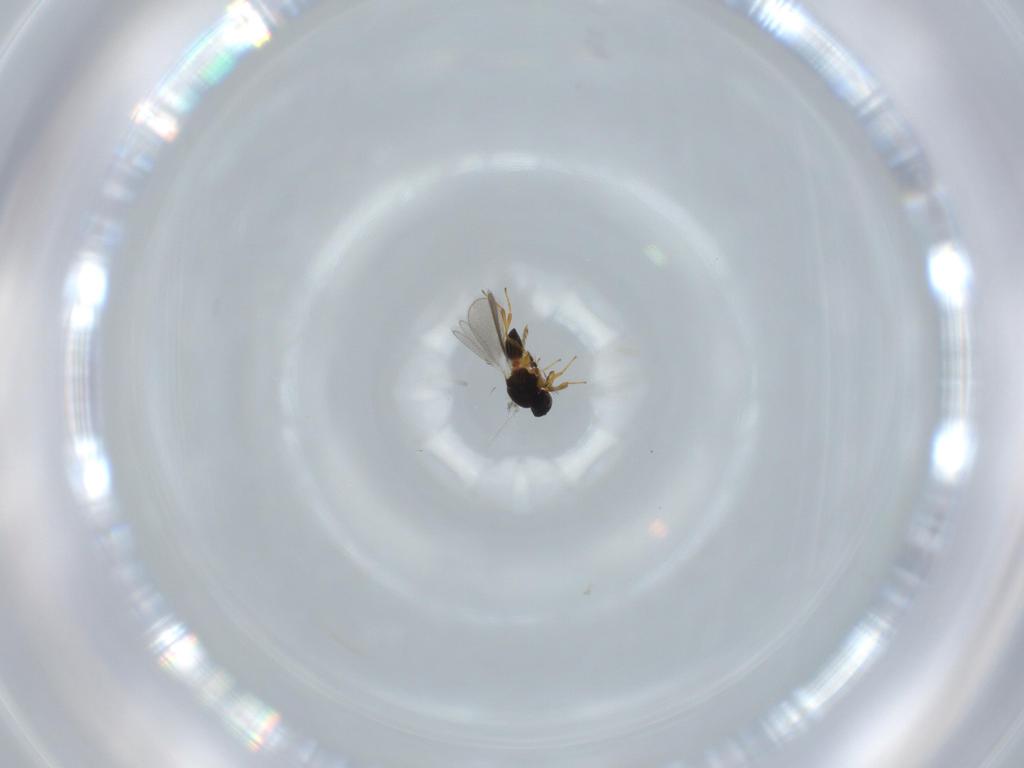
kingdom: Animalia
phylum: Arthropoda
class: Insecta
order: Hymenoptera
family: Platygastridae
